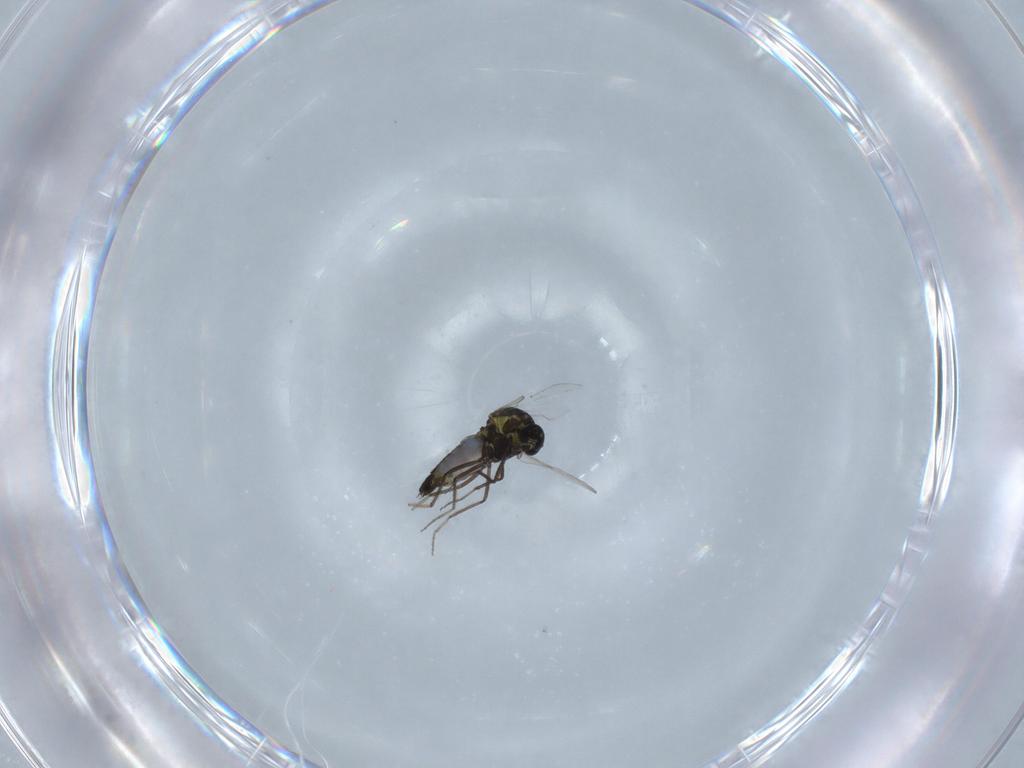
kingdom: Animalia
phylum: Arthropoda
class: Insecta
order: Diptera
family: Ceratopogonidae
